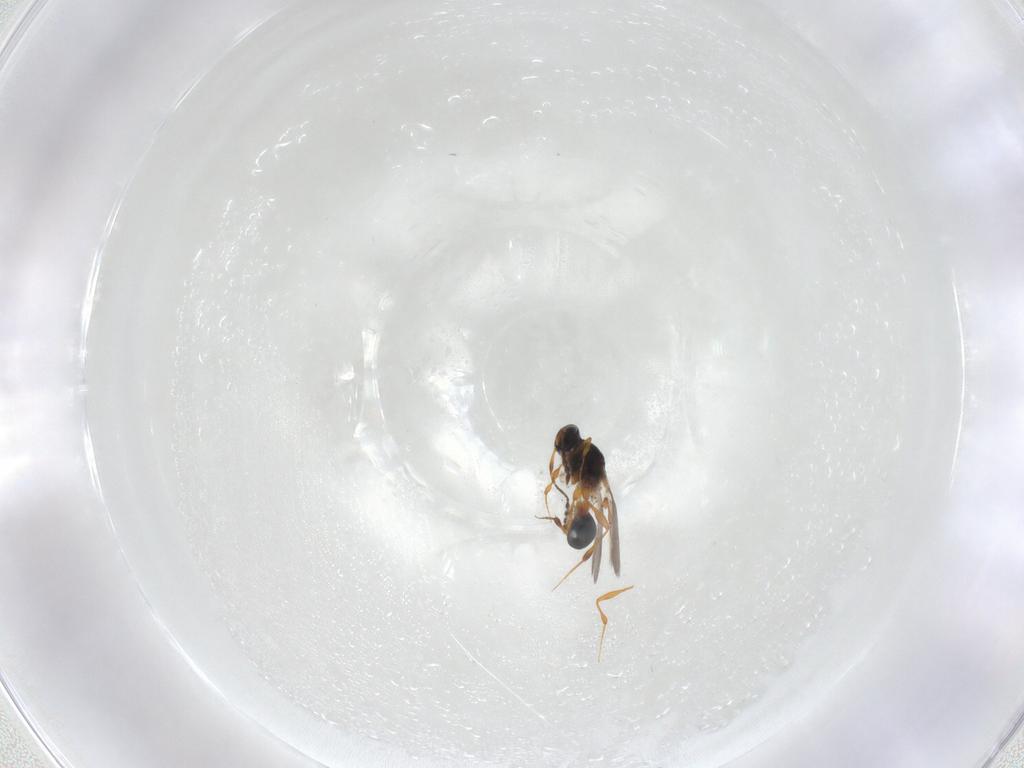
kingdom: Animalia
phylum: Arthropoda
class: Insecta
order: Hymenoptera
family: Platygastridae
